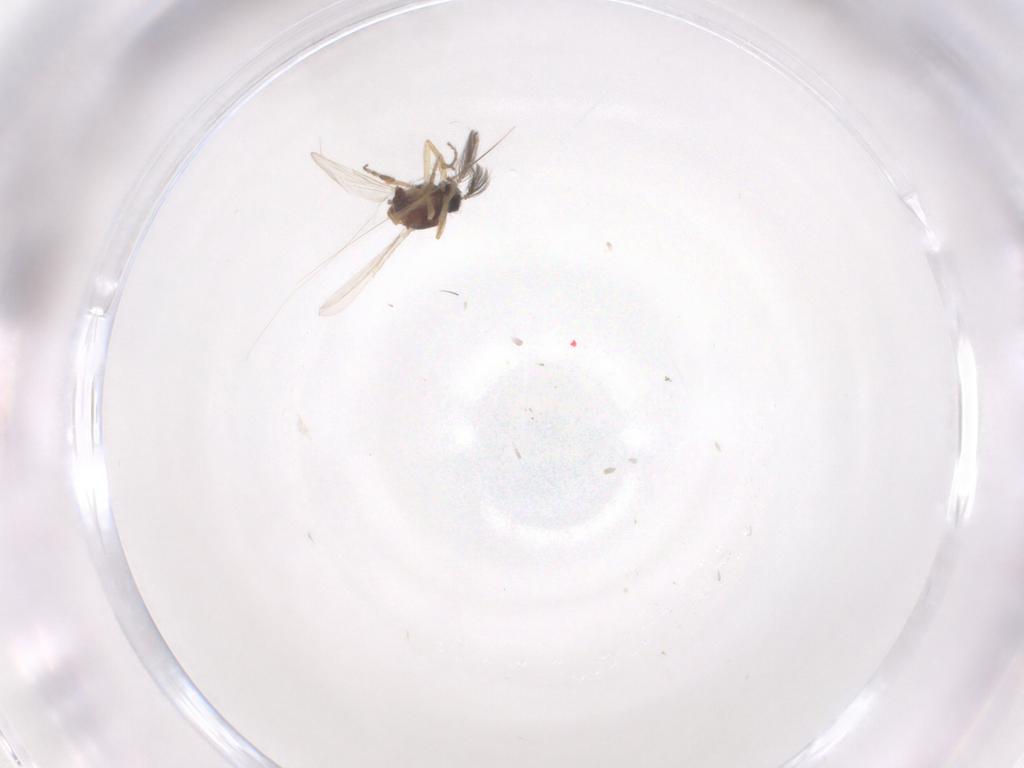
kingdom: Animalia
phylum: Arthropoda
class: Insecta
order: Diptera
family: Ceratopogonidae
